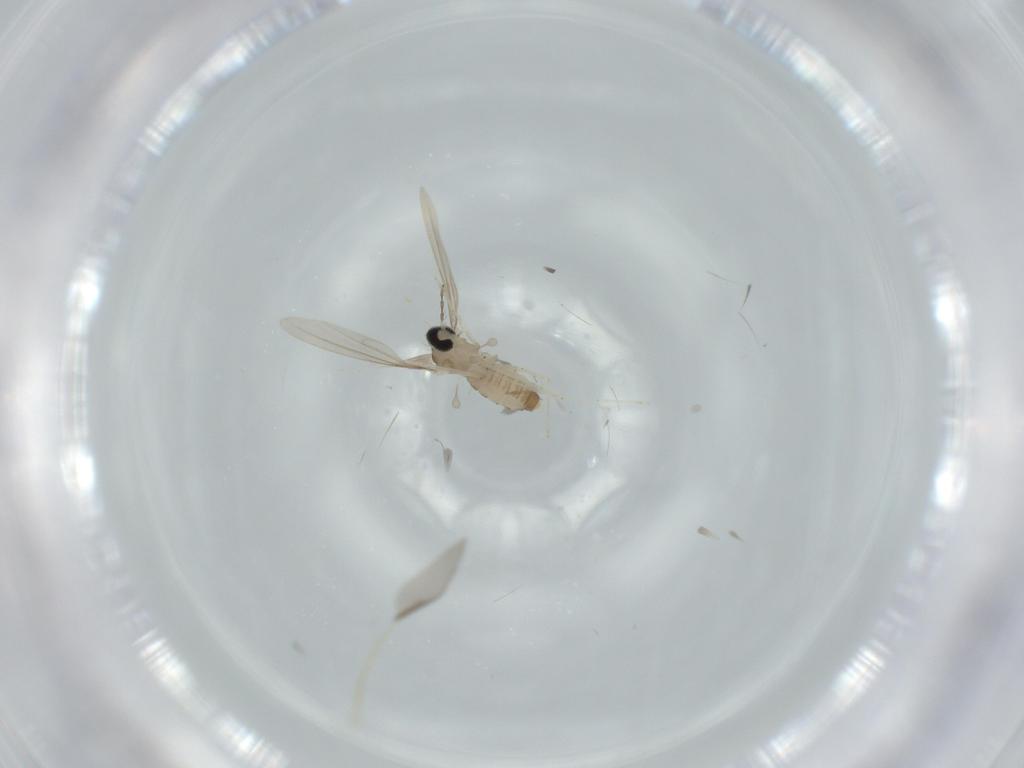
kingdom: Animalia
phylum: Arthropoda
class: Insecta
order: Diptera
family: Cecidomyiidae
